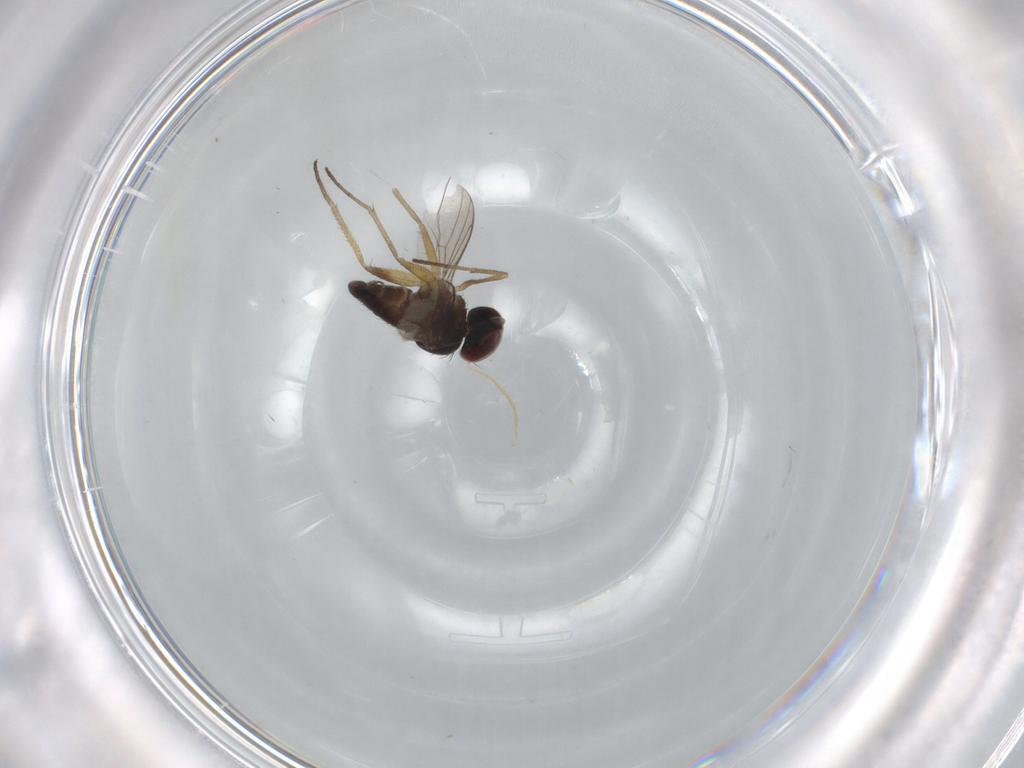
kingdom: Animalia
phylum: Arthropoda
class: Insecta
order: Diptera
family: Dolichopodidae
